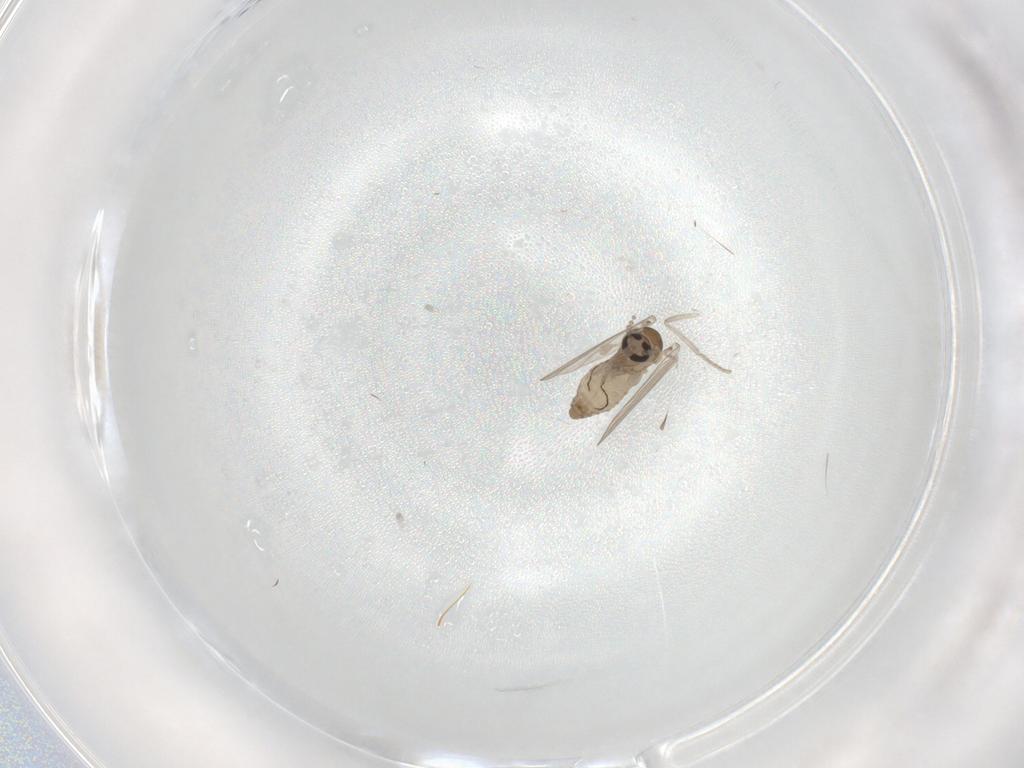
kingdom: Animalia
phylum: Arthropoda
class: Insecta
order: Diptera
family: Psychodidae
